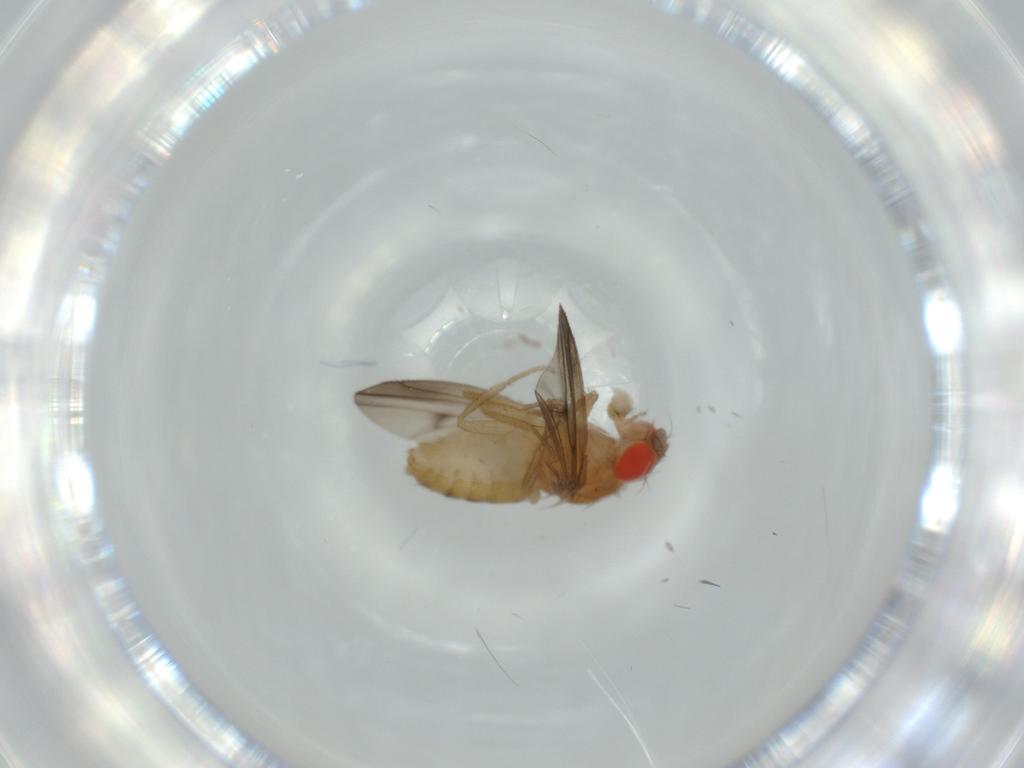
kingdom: Animalia
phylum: Arthropoda
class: Insecta
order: Diptera
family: Drosophilidae
